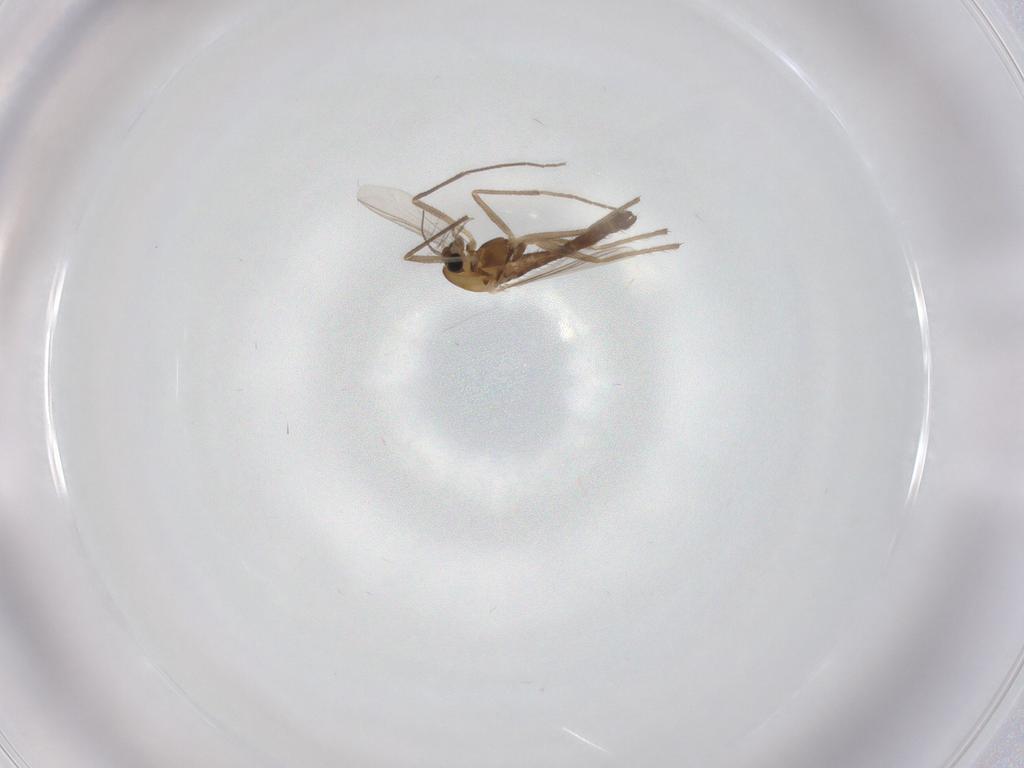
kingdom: Animalia
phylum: Arthropoda
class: Insecta
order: Diptera
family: Chironomidae
